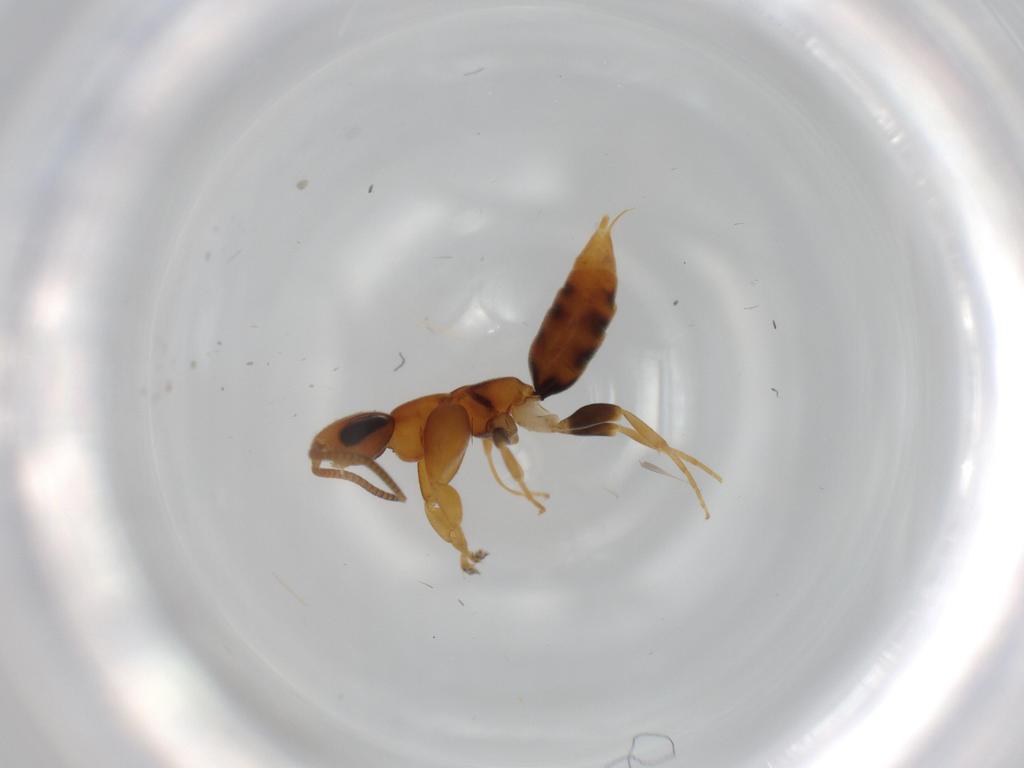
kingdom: Animalia
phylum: Arthropoda
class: Insecta
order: Hymenoptera
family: Sclerogibbidae
